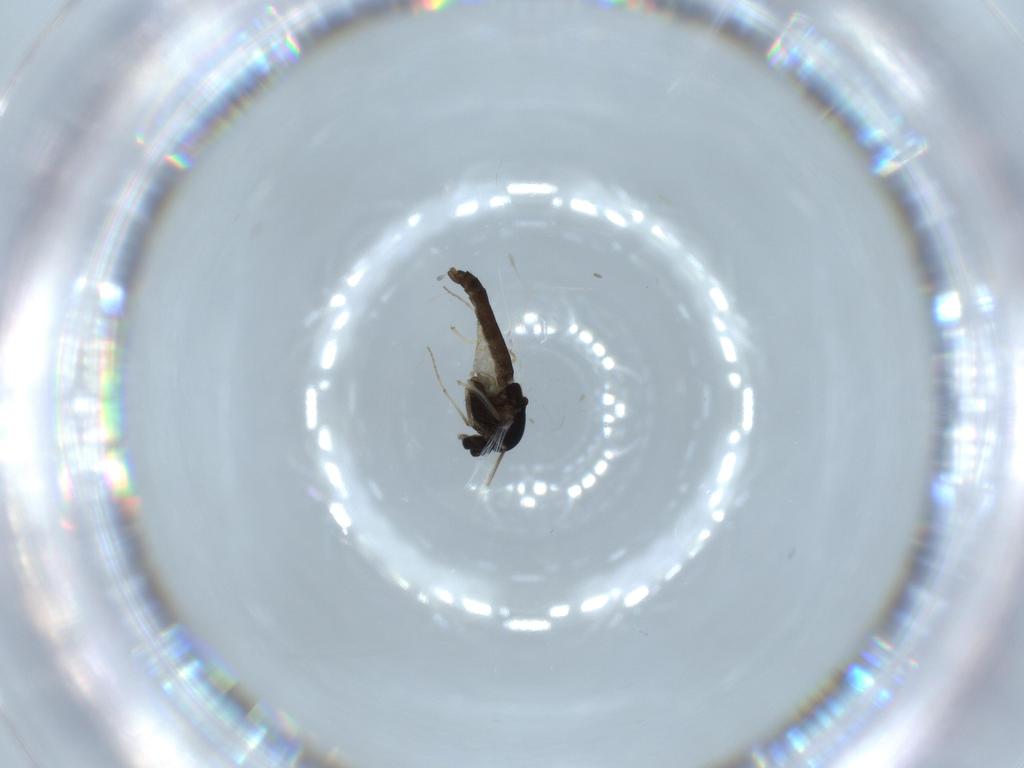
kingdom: Animalia
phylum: Arthropoda
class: Insecta
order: Diptera
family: Chironomidae
